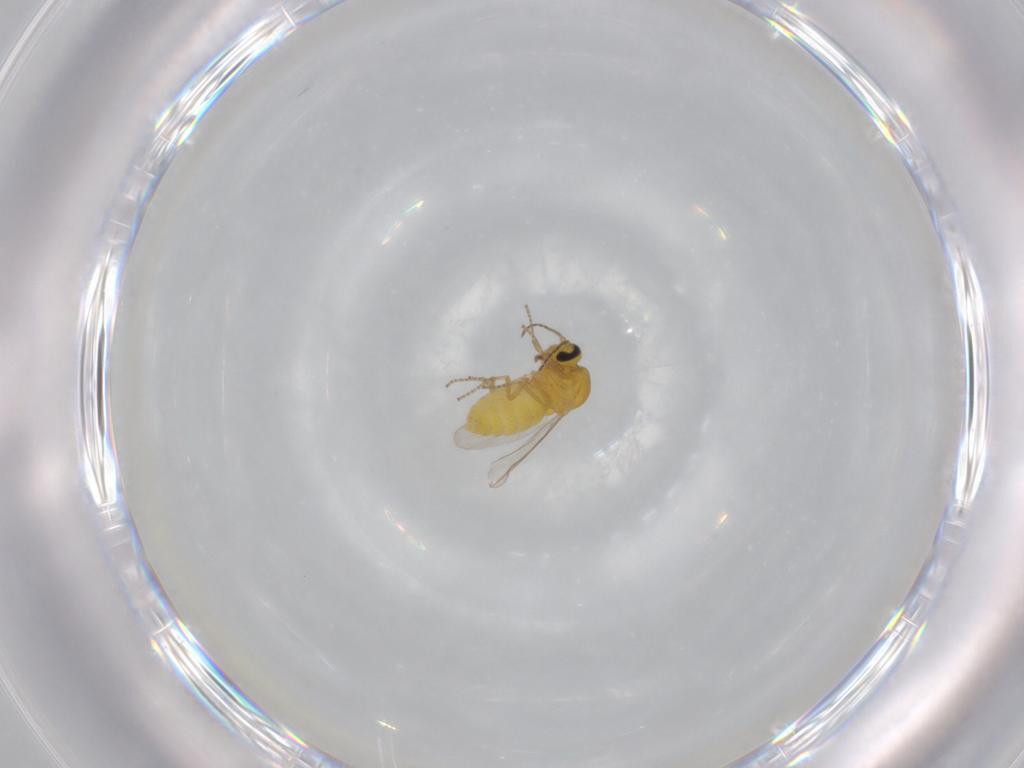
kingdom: Animalia
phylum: Arthropoda
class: Insecta
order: Diptera
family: Ceratopogonidae
